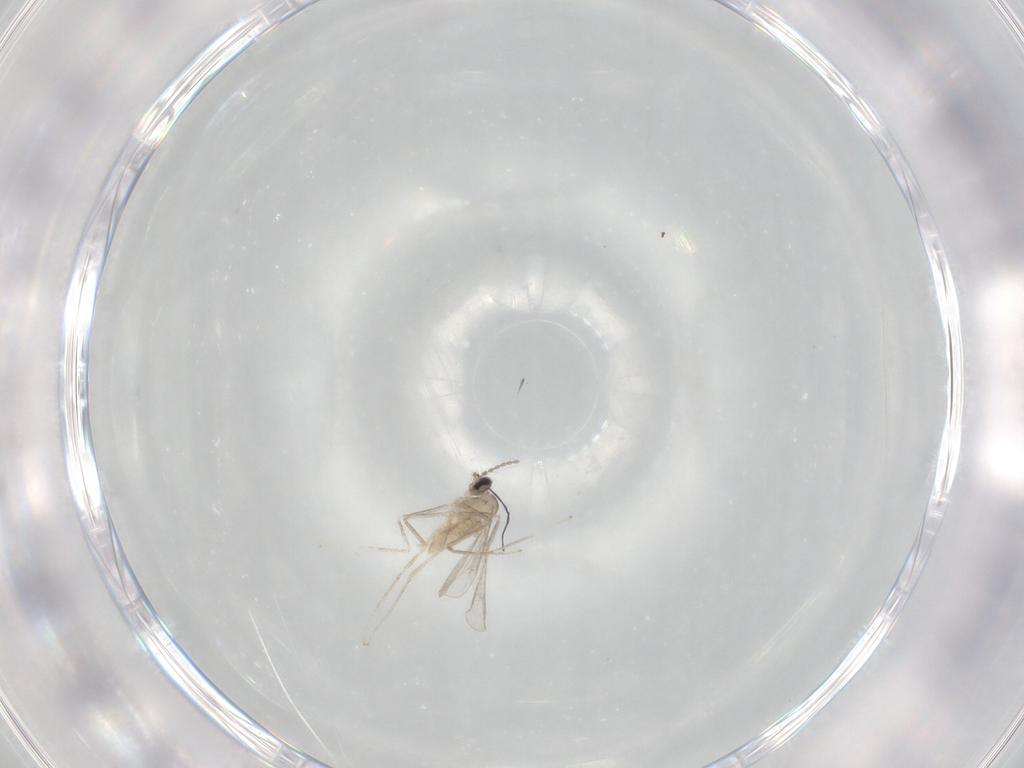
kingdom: Animalia
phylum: Arthropoda
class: Insecta
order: Diptera
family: Cecidomyiidae
